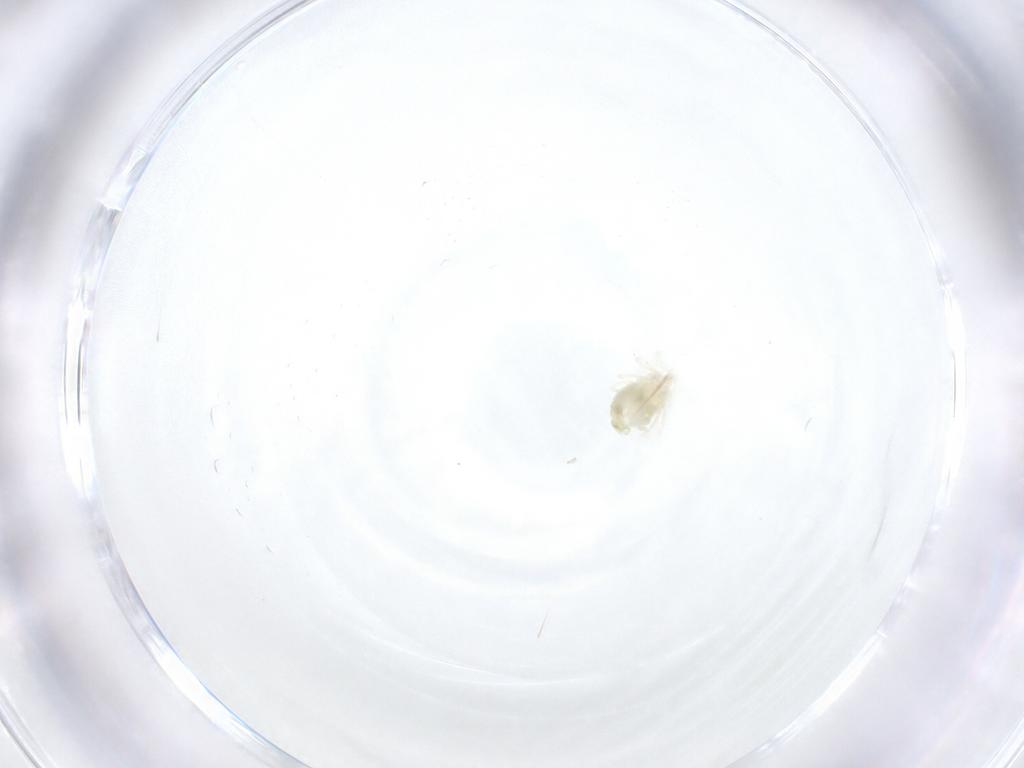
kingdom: Animalia
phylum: Arthropoda
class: Arachnida
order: Trombidiformes
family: Anystidae
